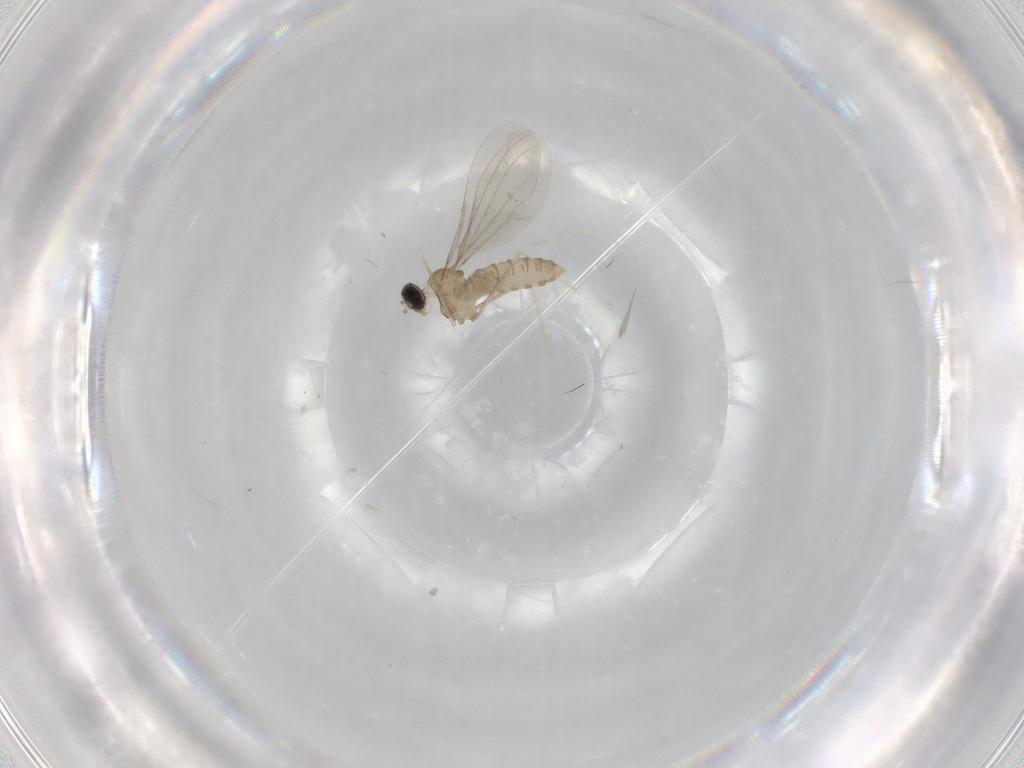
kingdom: Animalia
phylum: Arthropoda
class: Insecta
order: Diptera
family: Cecidomyiidae
